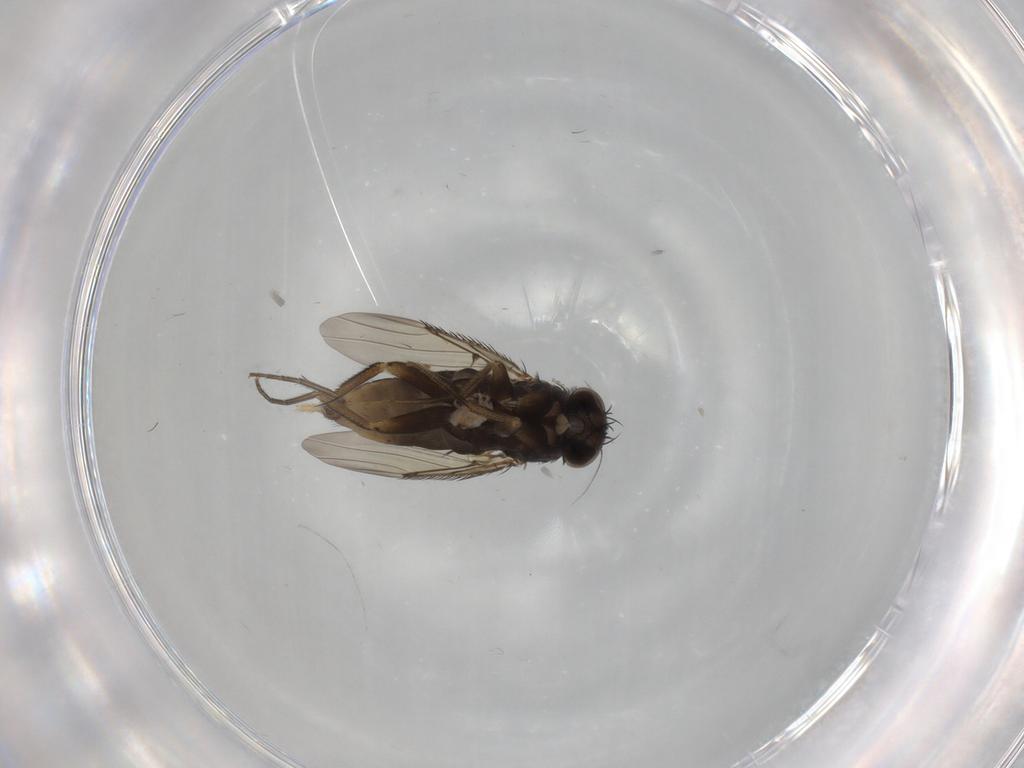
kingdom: Animalia
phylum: Arthropoda
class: Insecta
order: Diptera
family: Phoridae
